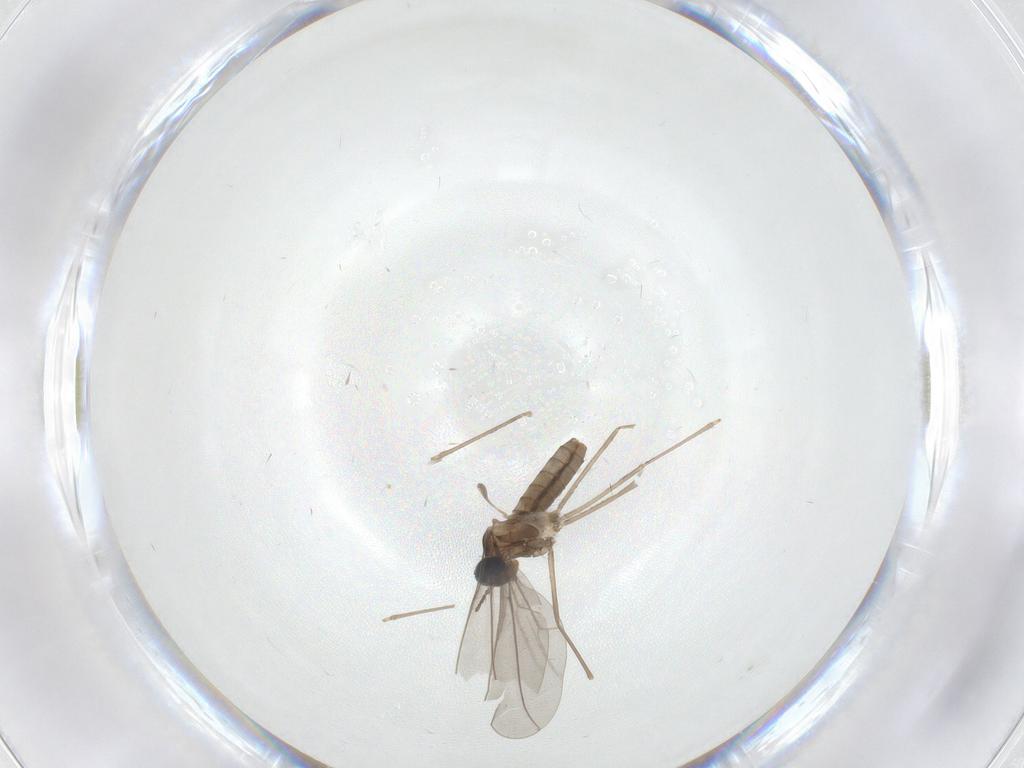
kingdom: Animalia
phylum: Arthropoda
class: Insecta
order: Diptera
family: Cecidomyiidae
